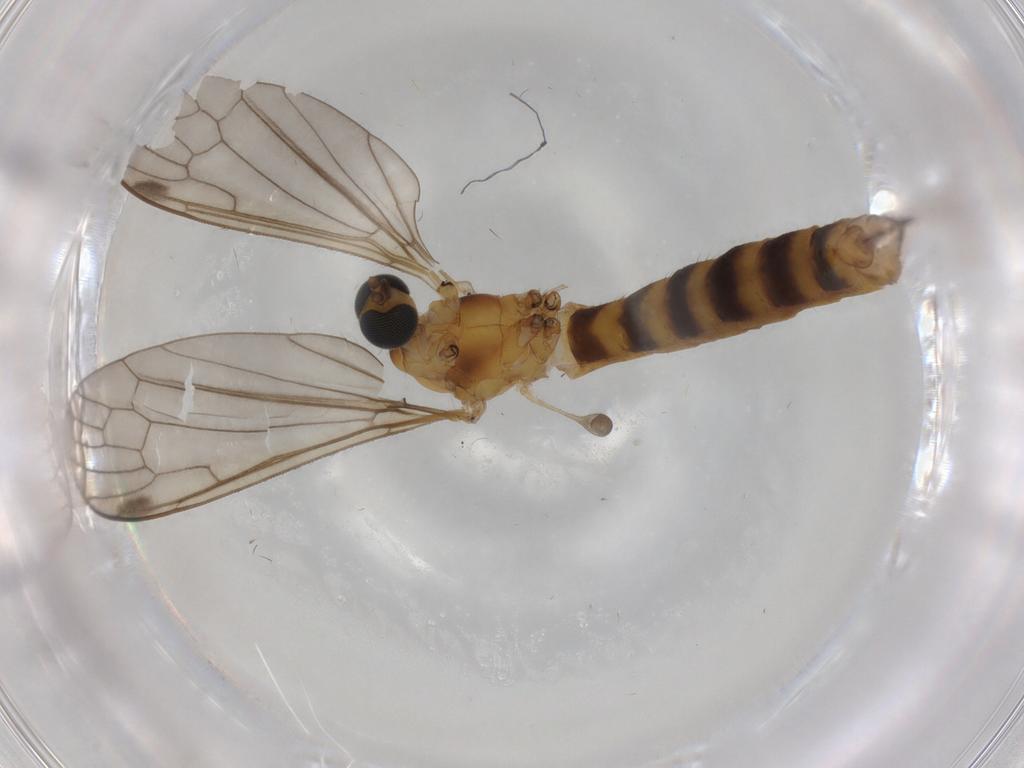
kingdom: Animalia
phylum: Arthropoda
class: Insecta
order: Diptera
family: Limoniidae
